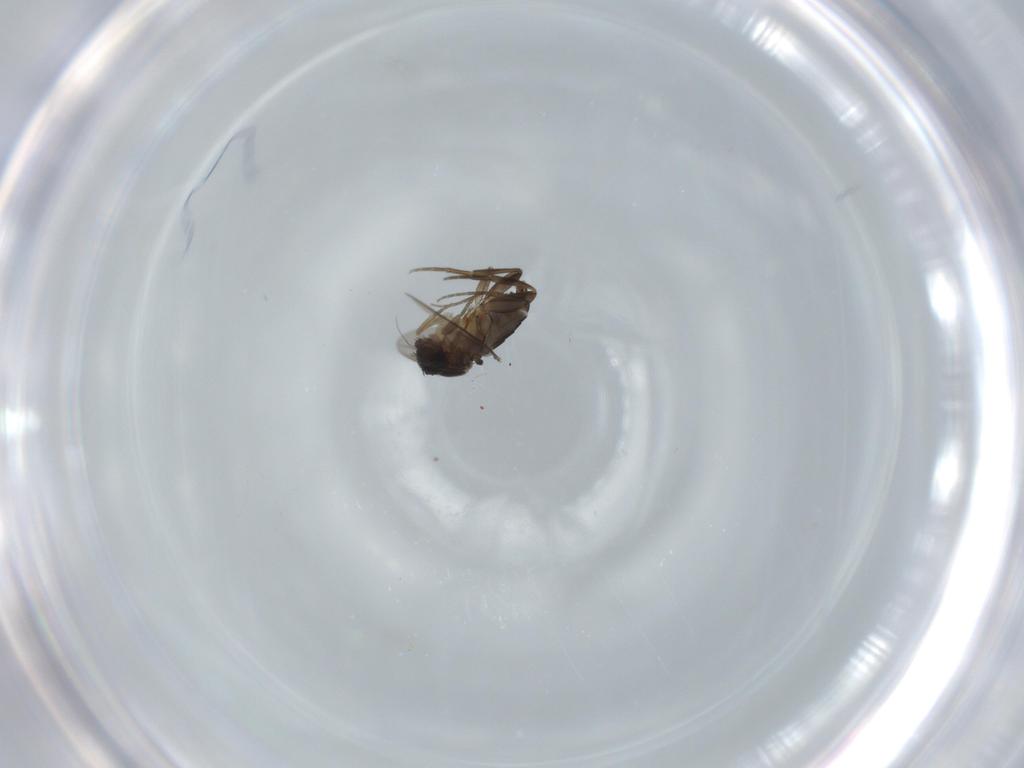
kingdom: Animalia
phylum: Arthropoda
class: Insecta
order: Diptera
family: Phoridae
